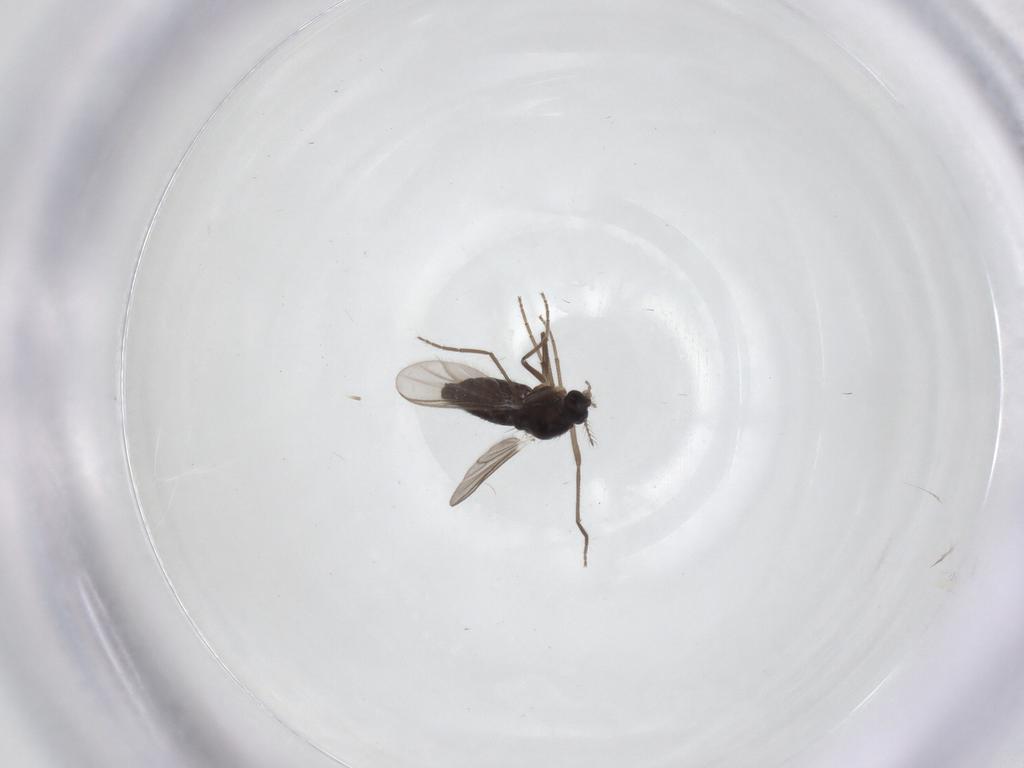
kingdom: Animalia
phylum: Arthropoda
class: Insecta
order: Diptera
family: Chironomidae
